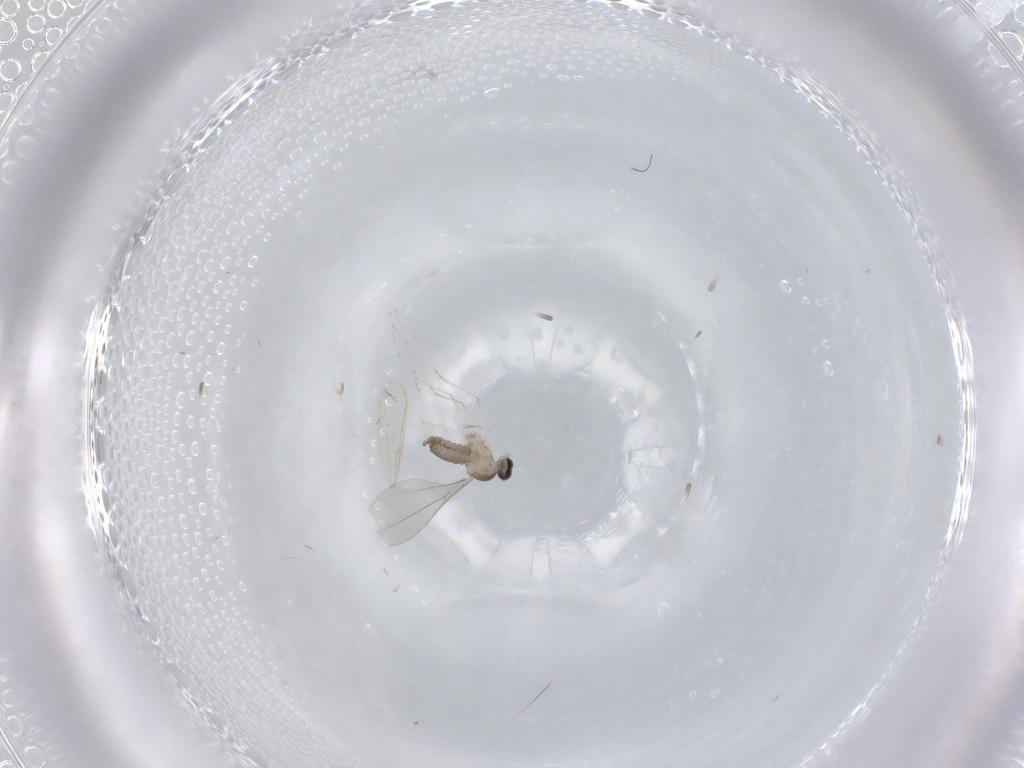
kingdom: Animalia
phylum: Arthropoda
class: Insecta
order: Diptera
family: Cecidomyiidae
